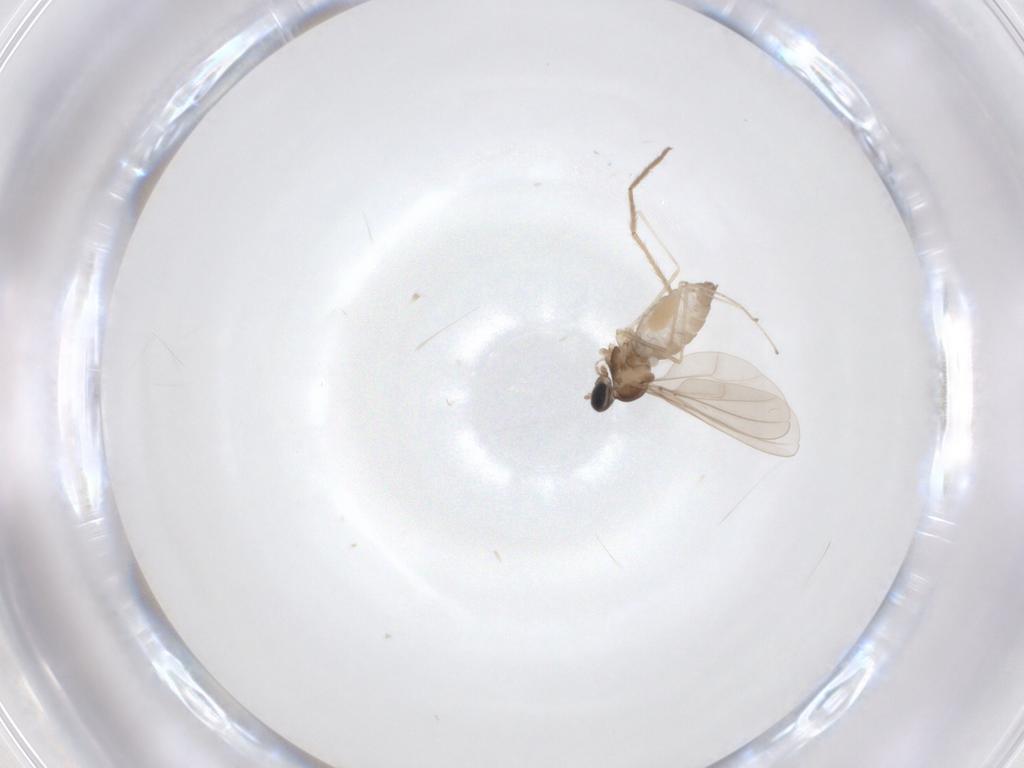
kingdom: Animalia
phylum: Arthropoda
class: Insecta
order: Diptera
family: Cecidomyiidae
